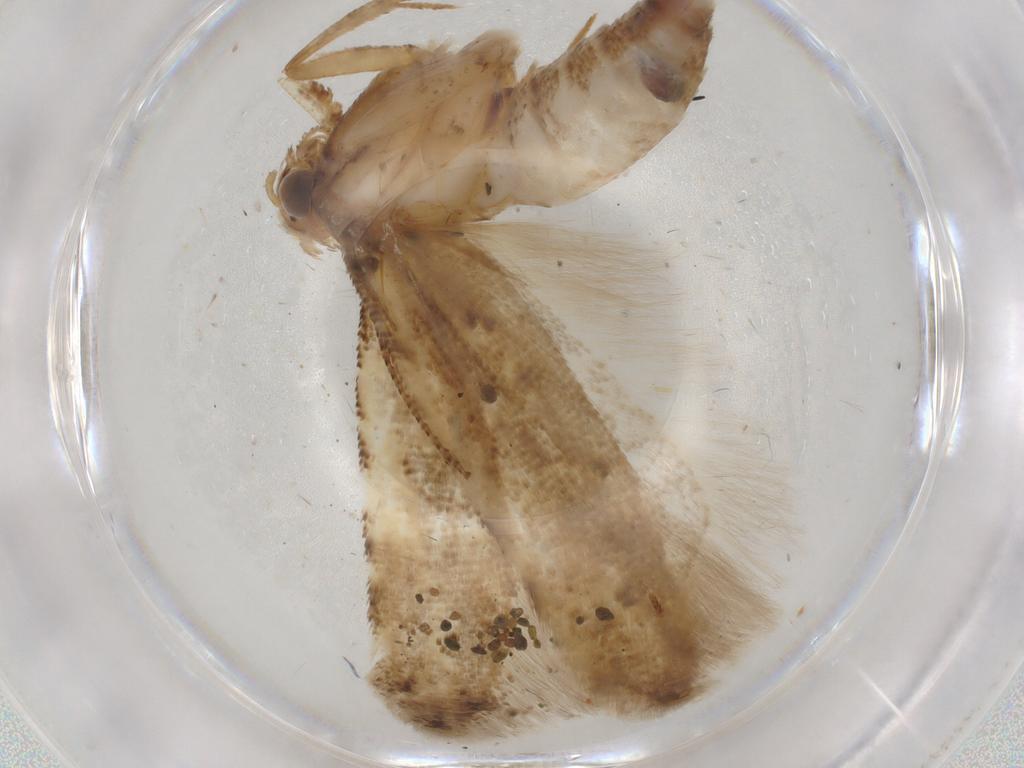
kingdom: Animalia
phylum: Arthropoda
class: Insecta
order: Lepidoptera
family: Gelechiidae
